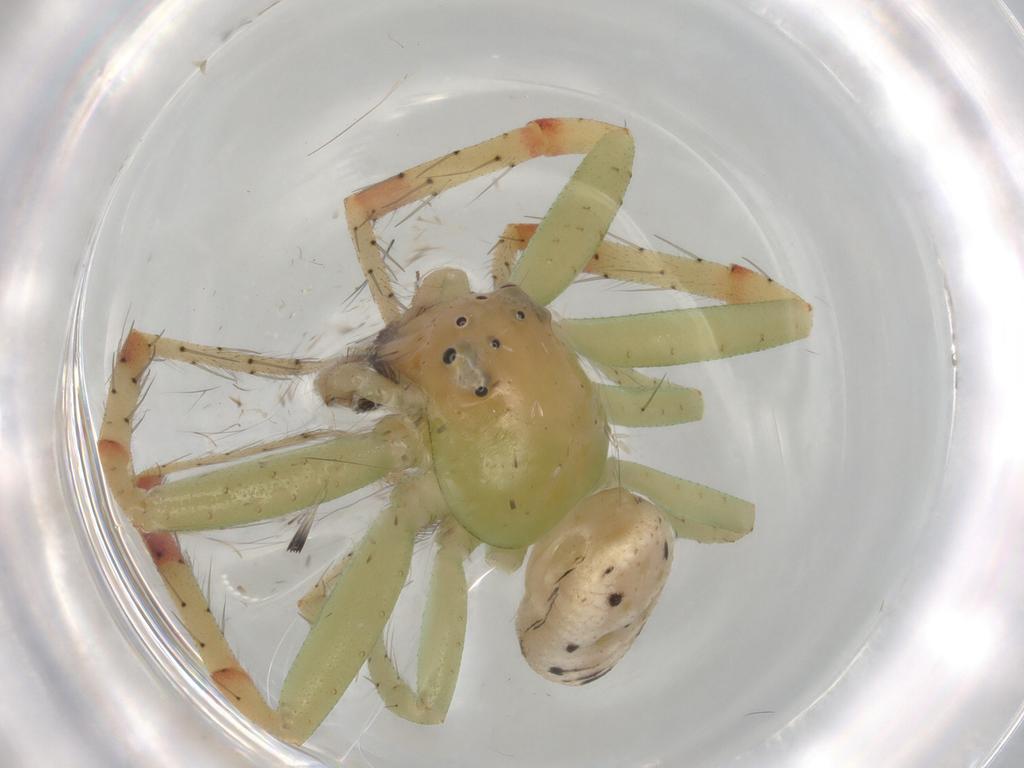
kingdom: Animalia
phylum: Arthropoda
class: Arachnida
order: Araneae
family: Thomisidae
